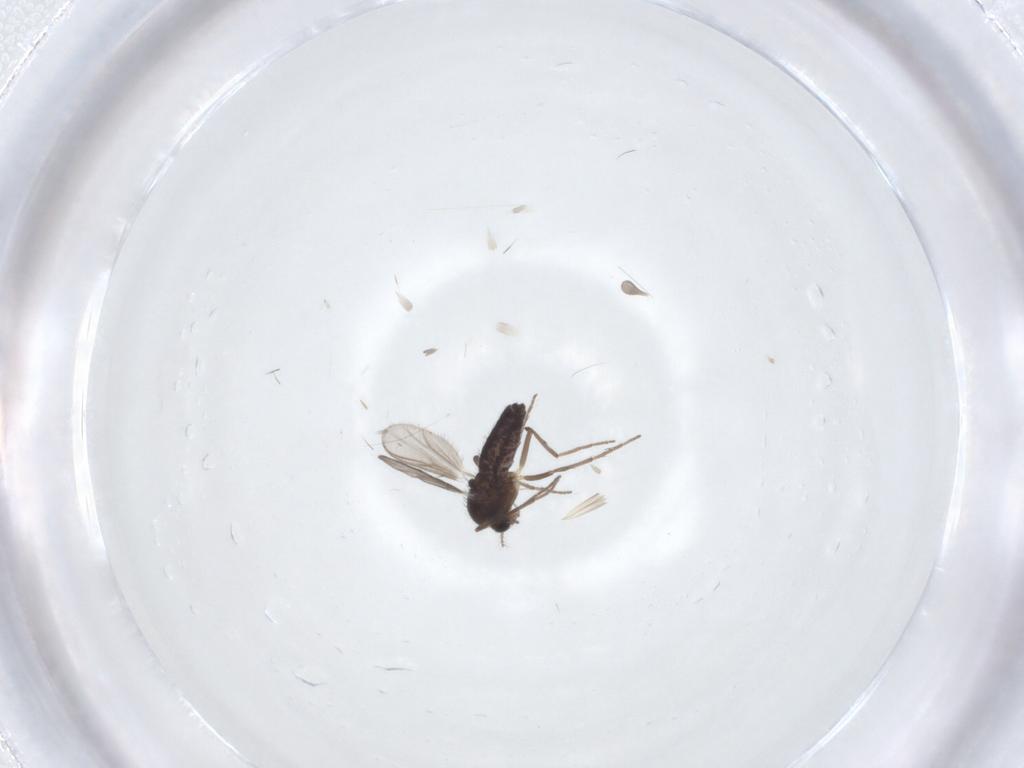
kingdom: Animalia
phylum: Arthropoda
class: Insecta
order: Diptera
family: Chironomidae
